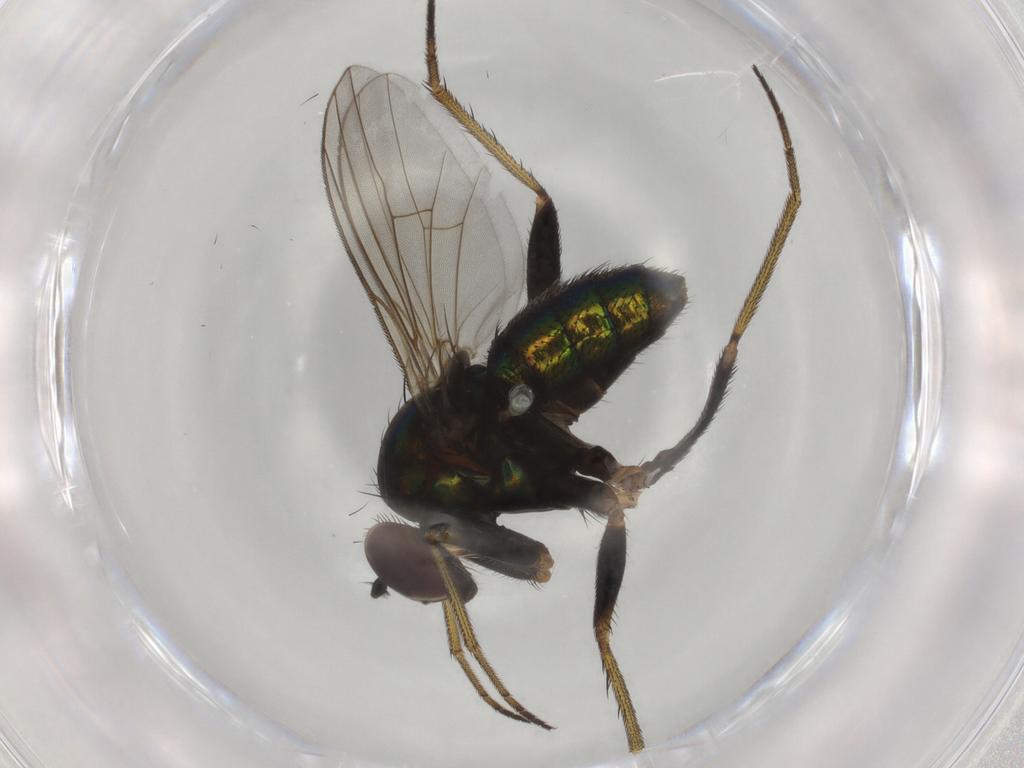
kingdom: Animalia
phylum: Arthropoda
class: Insecta
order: Diptera
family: Dolichopodidae
